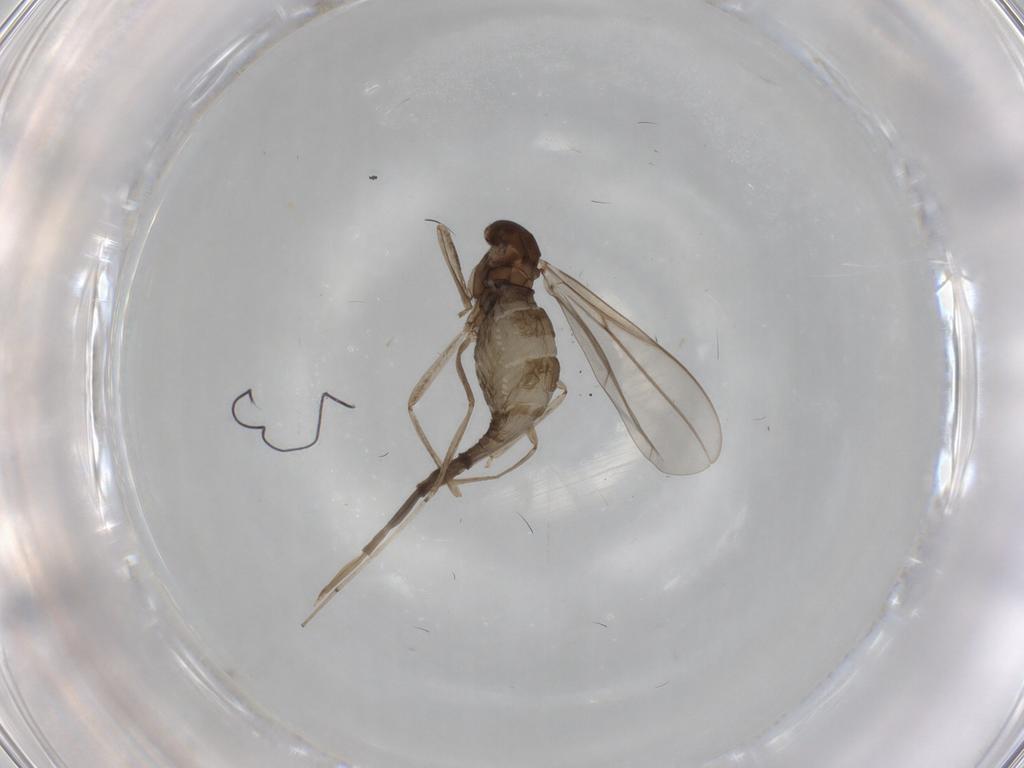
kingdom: Animalia
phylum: Arthropoda
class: Insecta
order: Diptera
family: Cecidomyiidae
